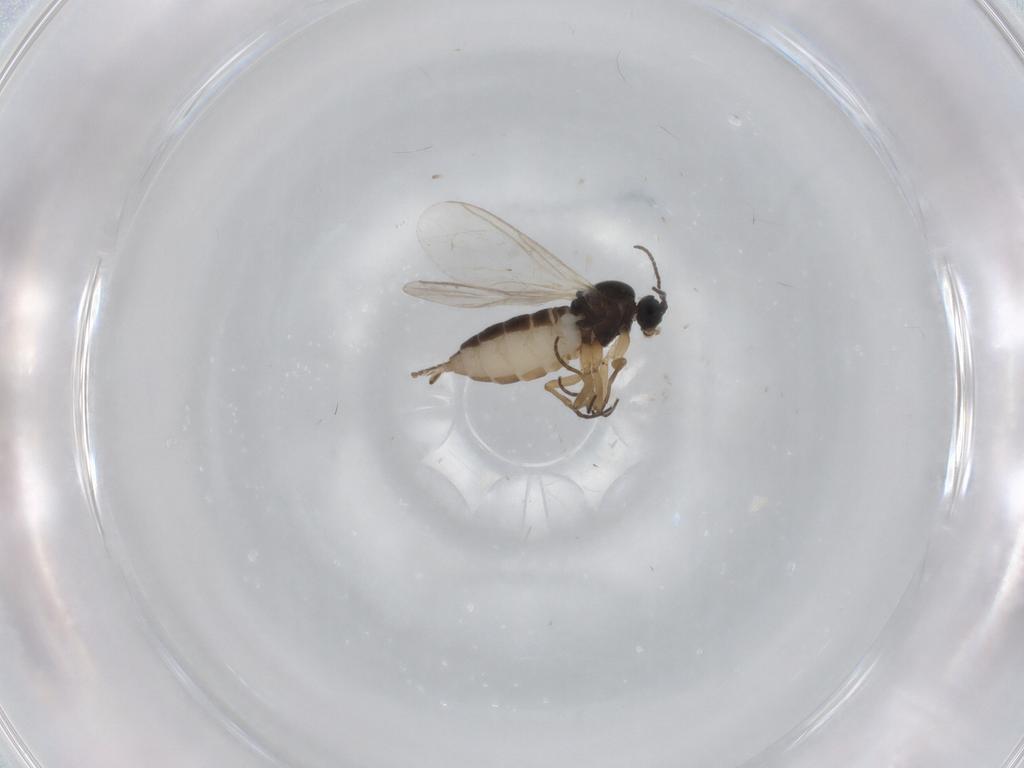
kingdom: Animalia
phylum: Arthropoda
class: Insecta
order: Diptera
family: Sciaridae
